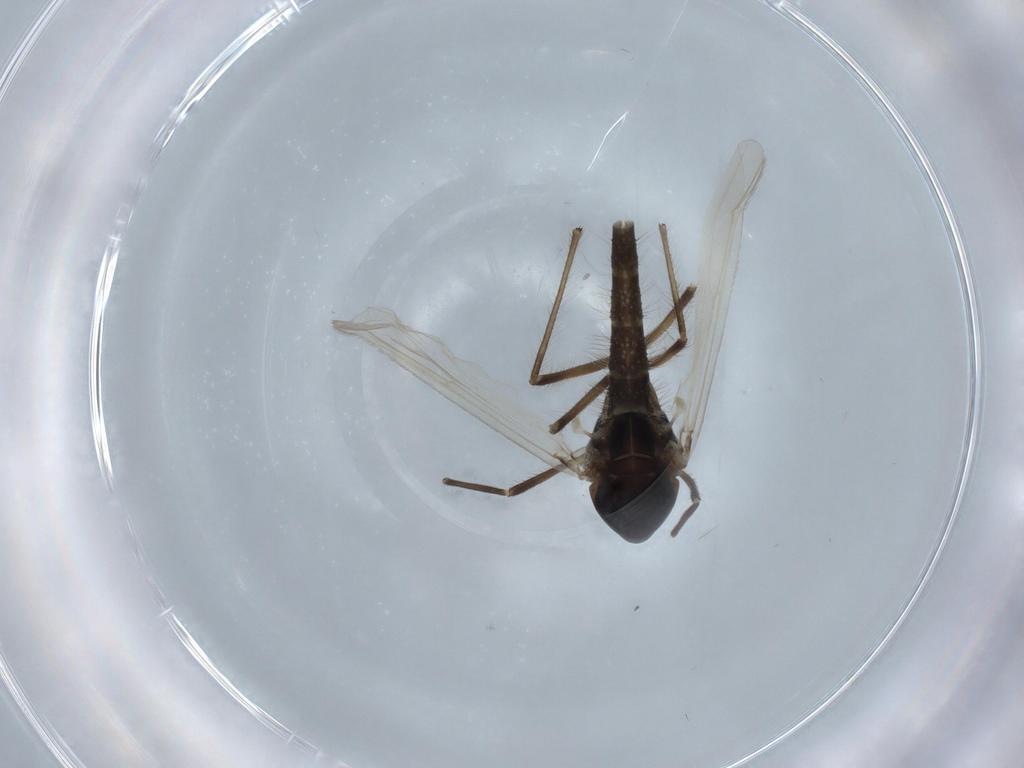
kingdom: Animalia
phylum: Arthropoda
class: Insecta
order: Diptera
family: Chironomidae
